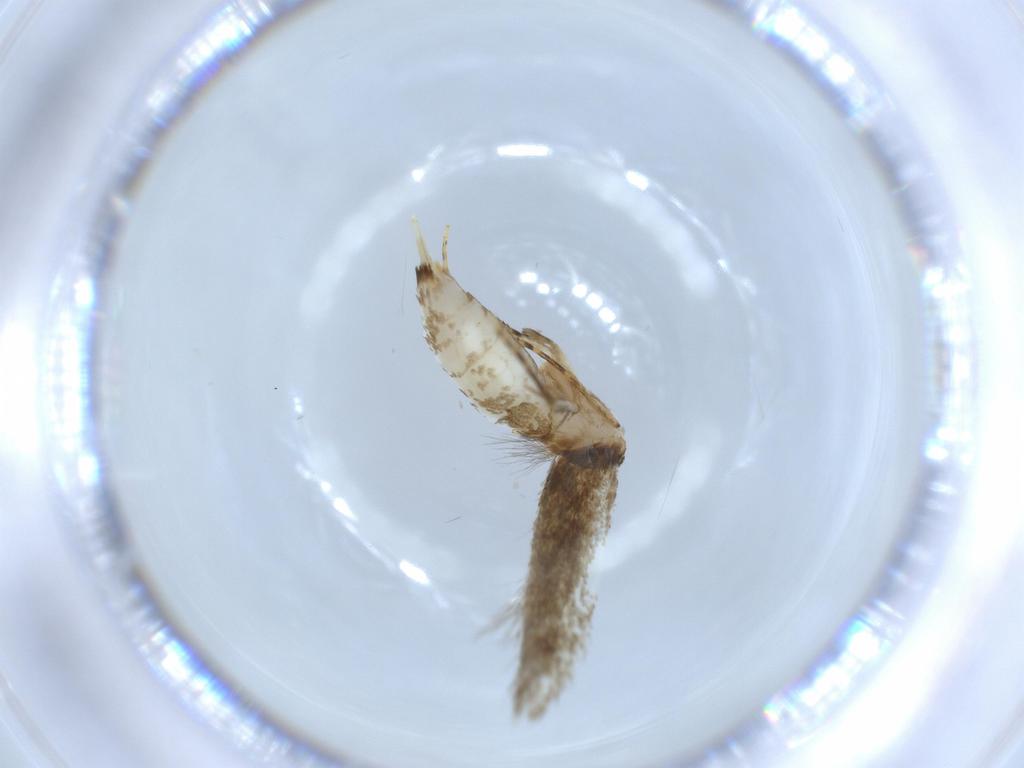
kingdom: Animalia
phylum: Arthropoda
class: Insecta
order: Lepidoptera
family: Tineidae
